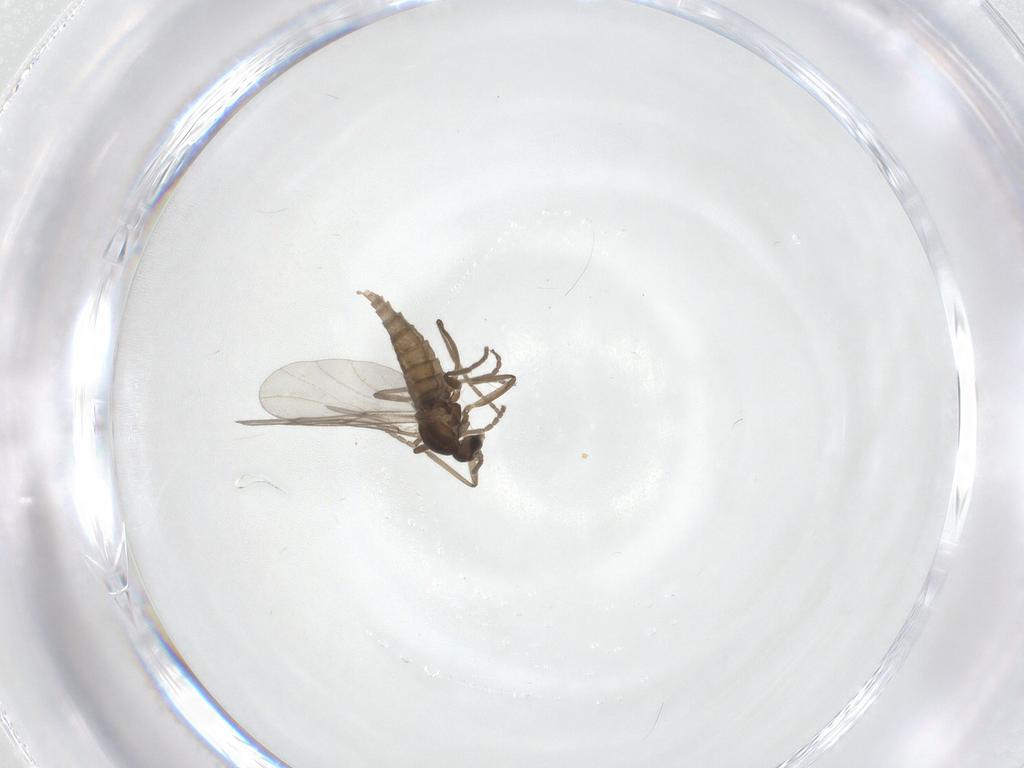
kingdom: Animalia
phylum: Arthropoda
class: Insecta
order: Diptera
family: Cecidomyiidae
